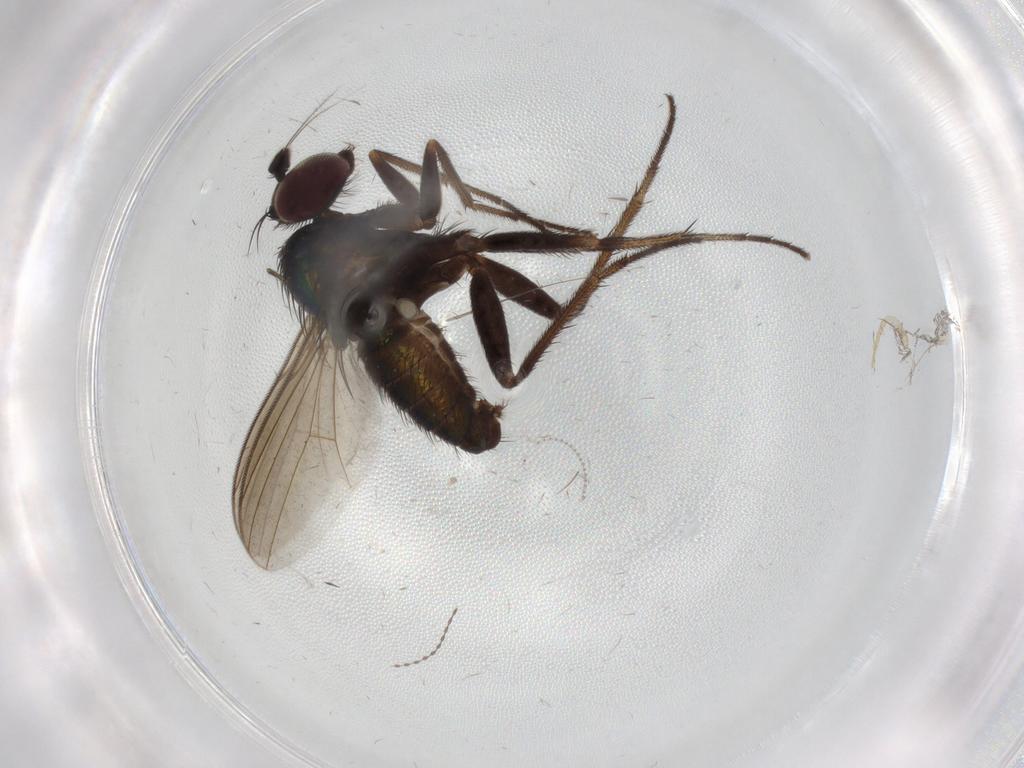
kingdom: Animalia
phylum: Arthropoda
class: Insecta
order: Diptera
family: Dolichopodidae
